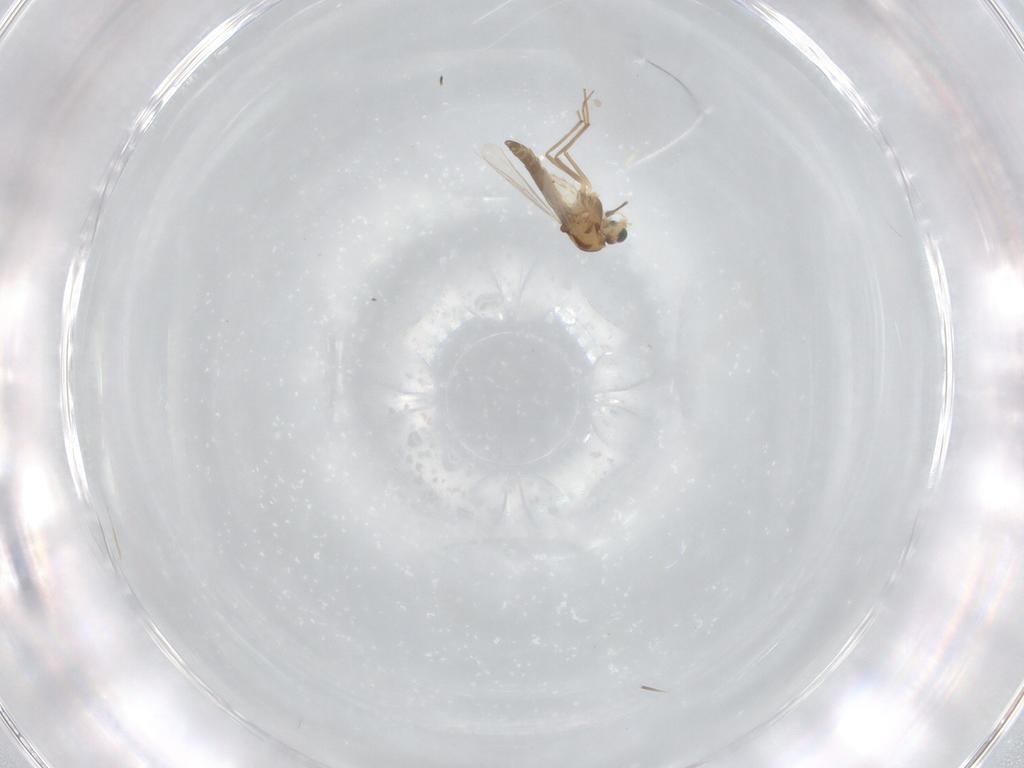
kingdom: Animalia
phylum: Arthropoda
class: Insecta
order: Diptera
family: Chironomidae
